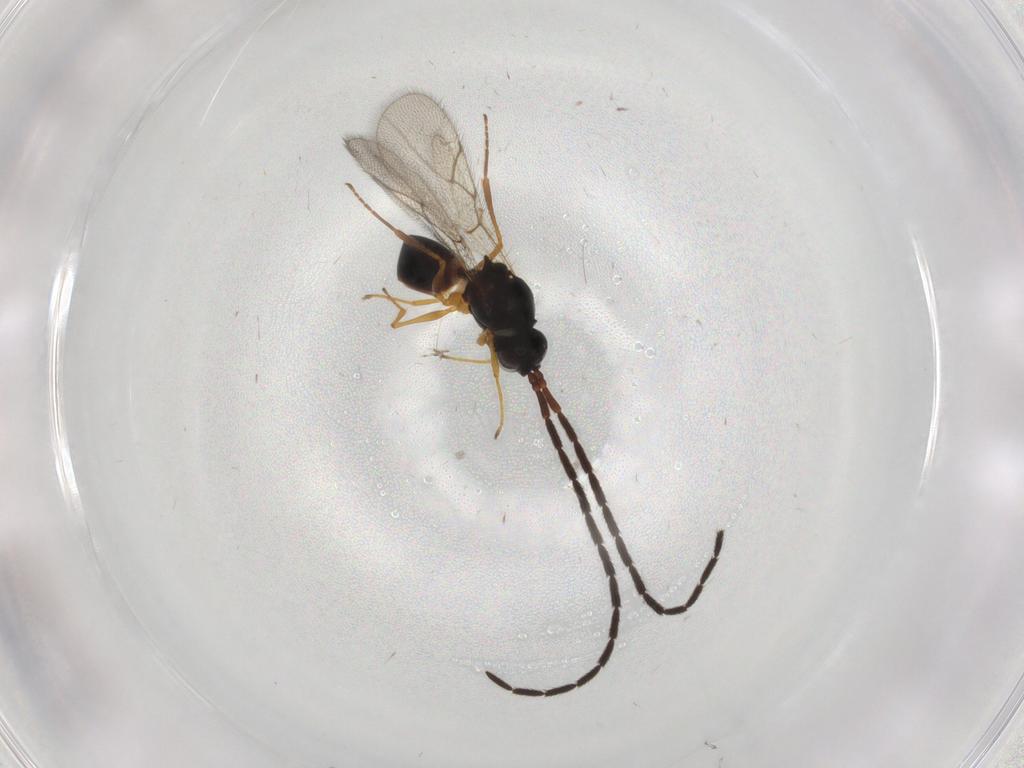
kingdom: Animalia
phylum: Arthropoda
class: Insecta
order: Hymenoptera
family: Figitidae
